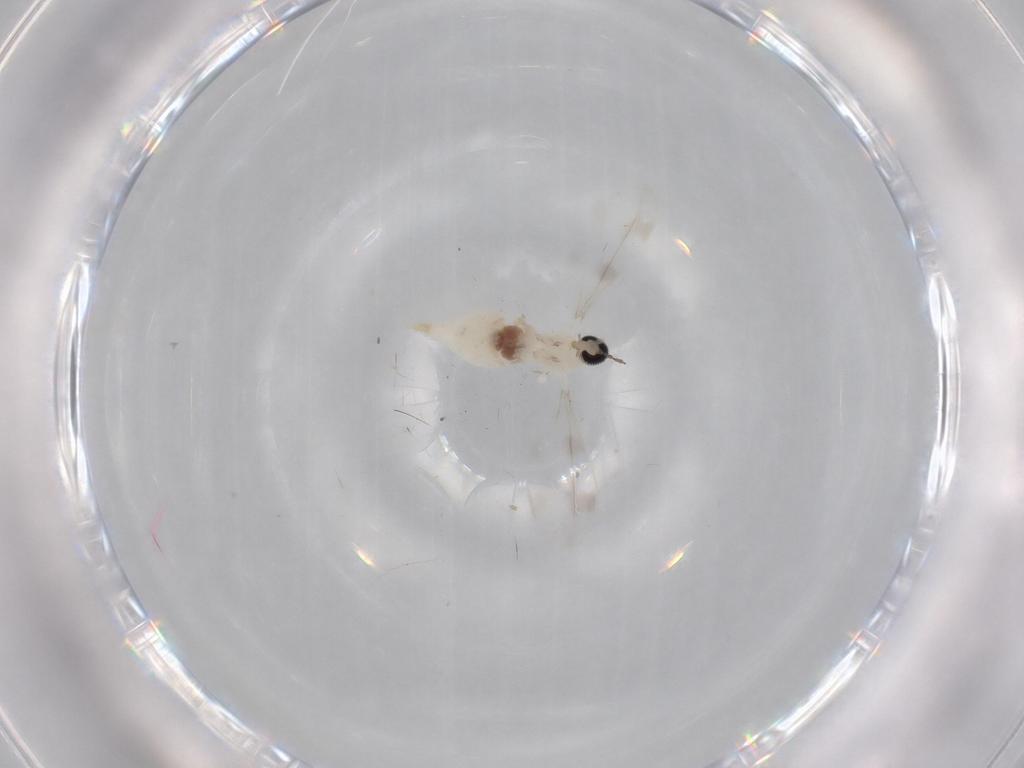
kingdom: Animalia
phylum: Arthropoda
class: Insecta
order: Diptera
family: Cecidomyiidae
